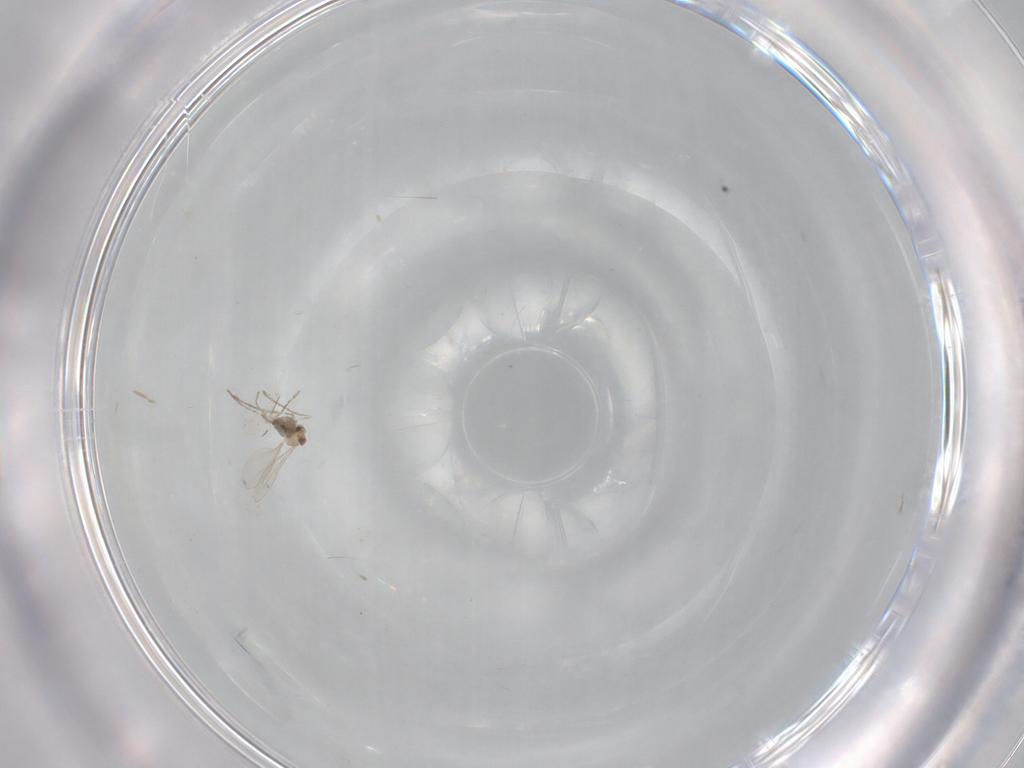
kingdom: Animalia
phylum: Arthropoda
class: Insecta
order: Diptera
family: Cecidomyiidae
